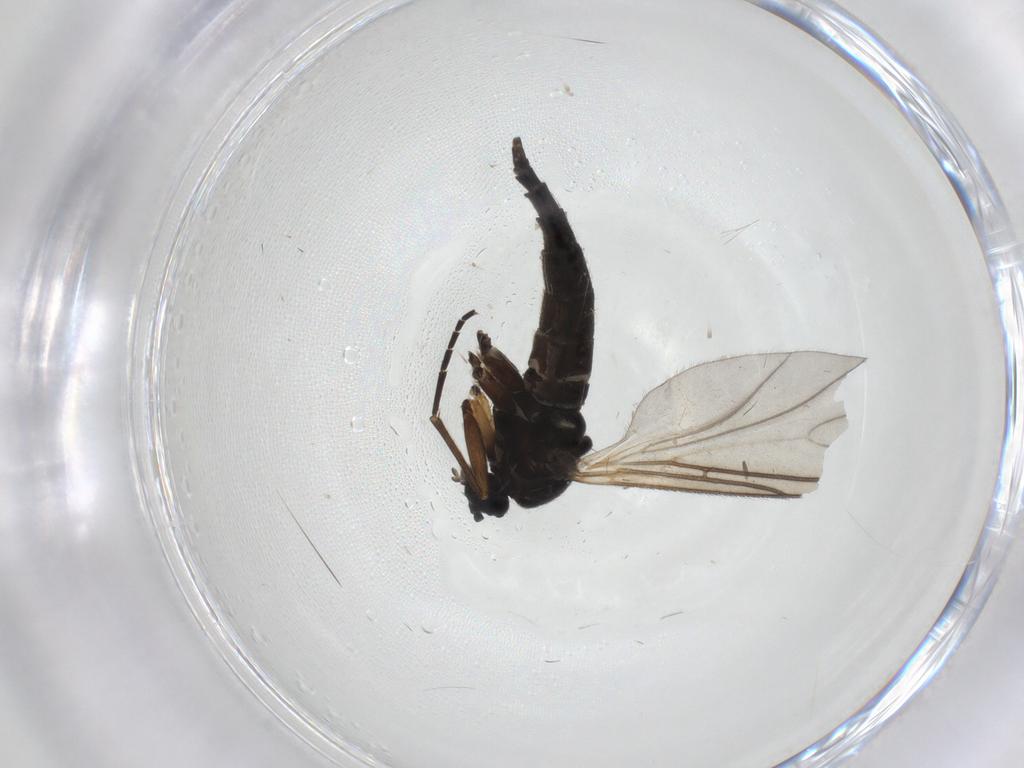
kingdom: Animalia
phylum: Arthropoda
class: Insecta
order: Diptera
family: Sciaridae
